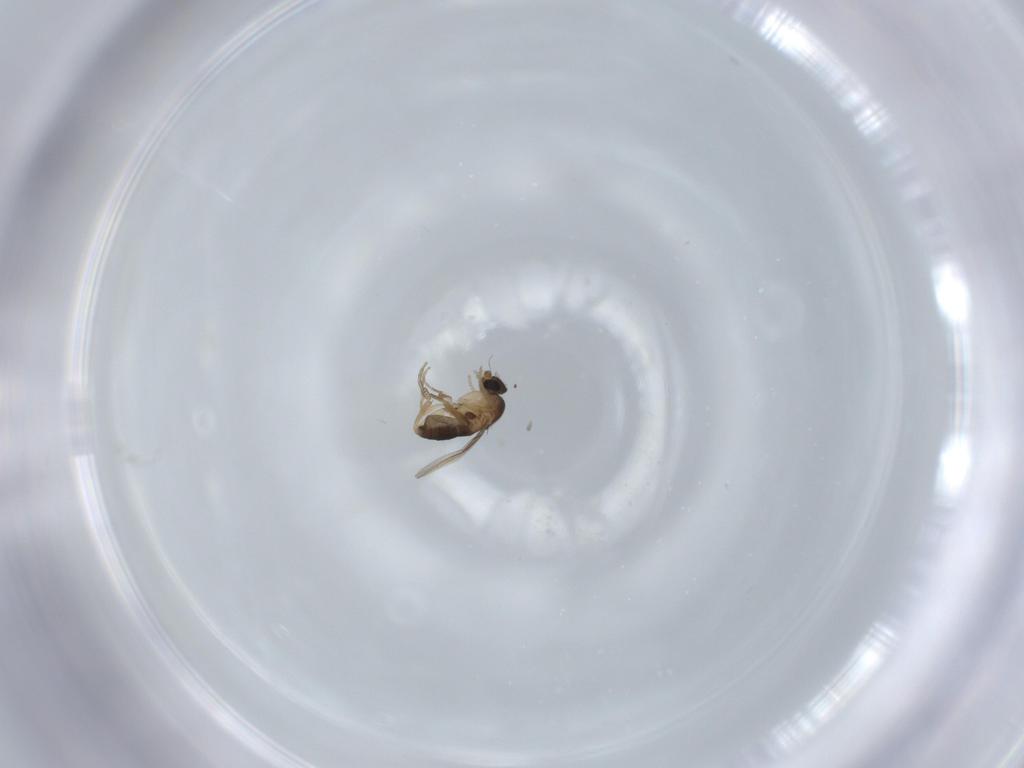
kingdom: Animalia
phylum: Arthropoda
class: Insecta
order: Diptera
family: Phoridae
